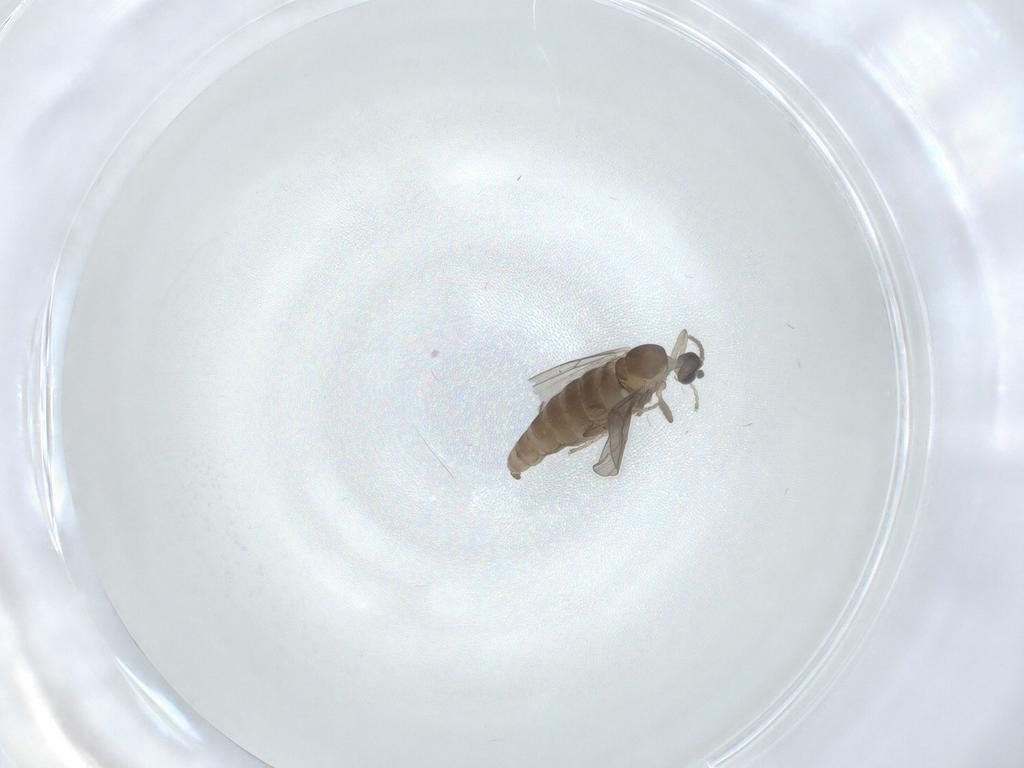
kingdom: Animalia
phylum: Arthropoda
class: Insecta
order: Diptera
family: Cecidomyiidae
